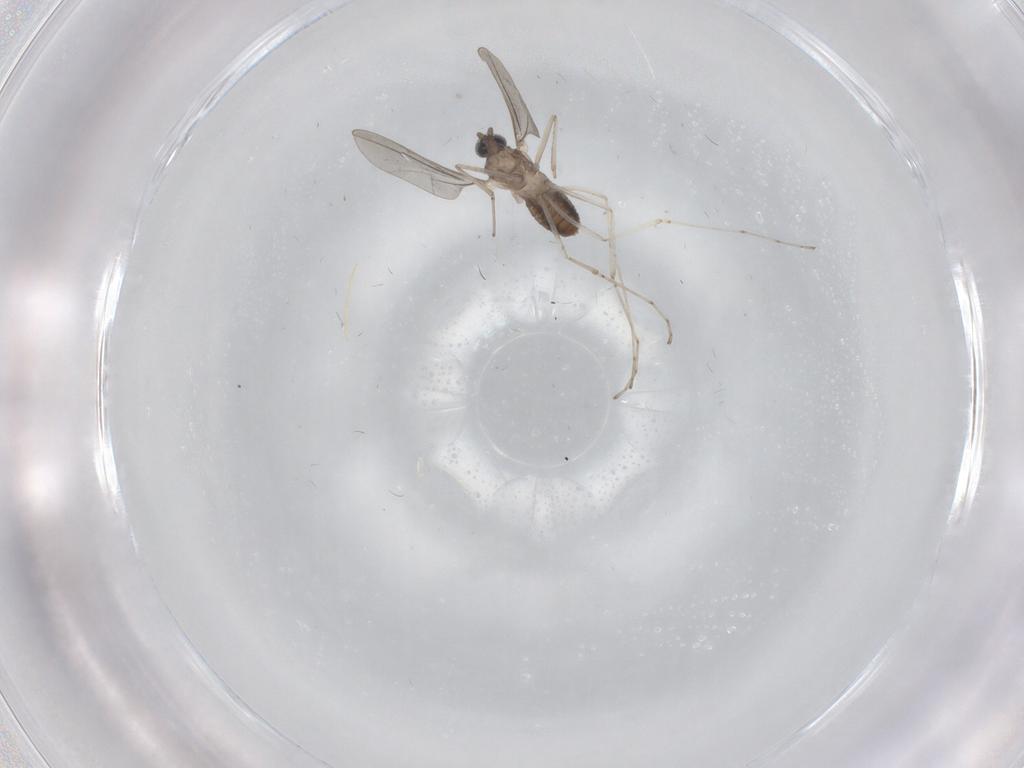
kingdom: Animalia
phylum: Arthropoda
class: Insecta
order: Diptera
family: Cecidomyiidae
